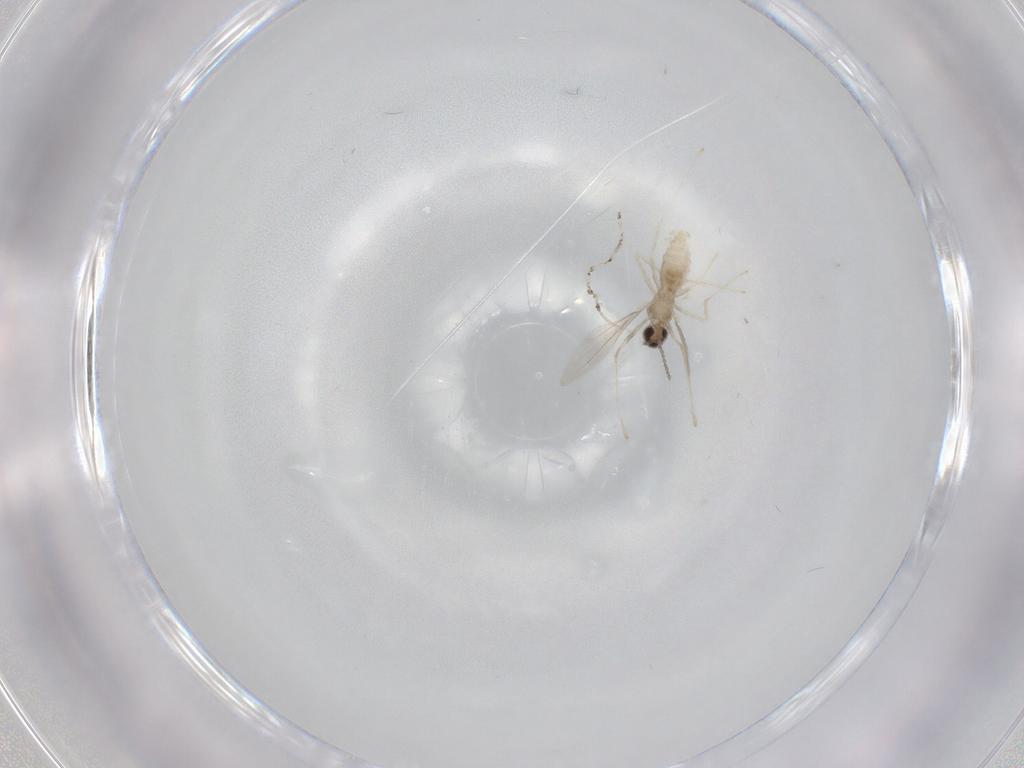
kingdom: Animalia
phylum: Arthropoda
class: Insecta
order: Diptera
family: Cecidomyiidae
